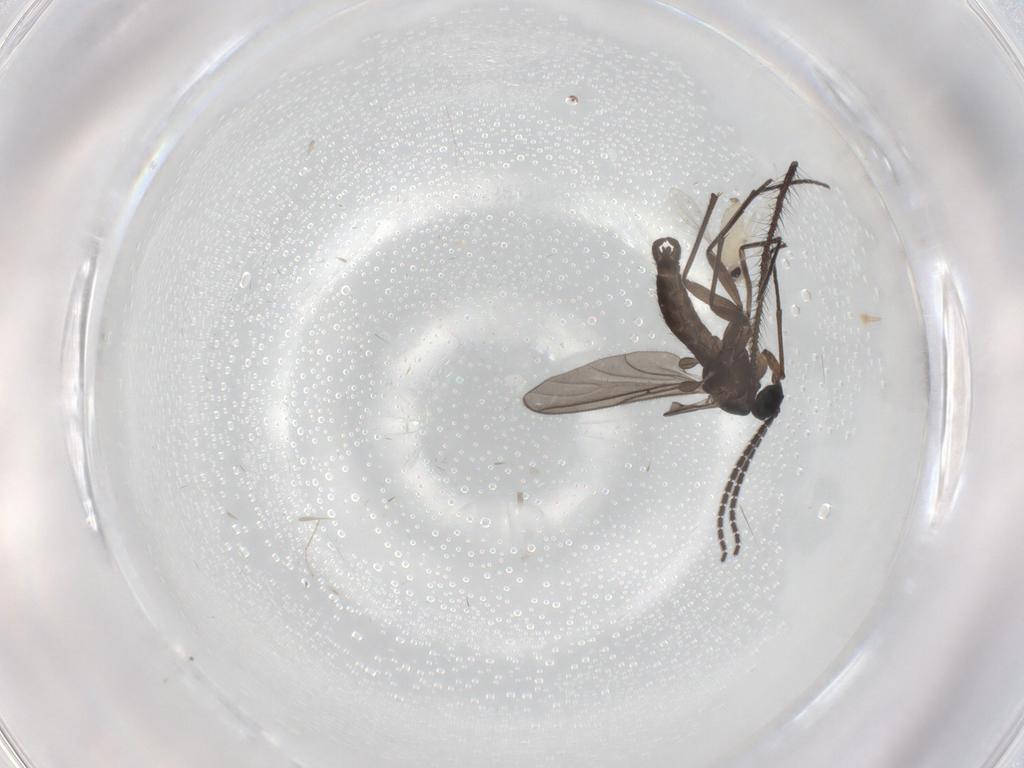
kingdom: Animalia
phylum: Arthropoda
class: Insecta
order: Diptera
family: Cecidomyiidae
